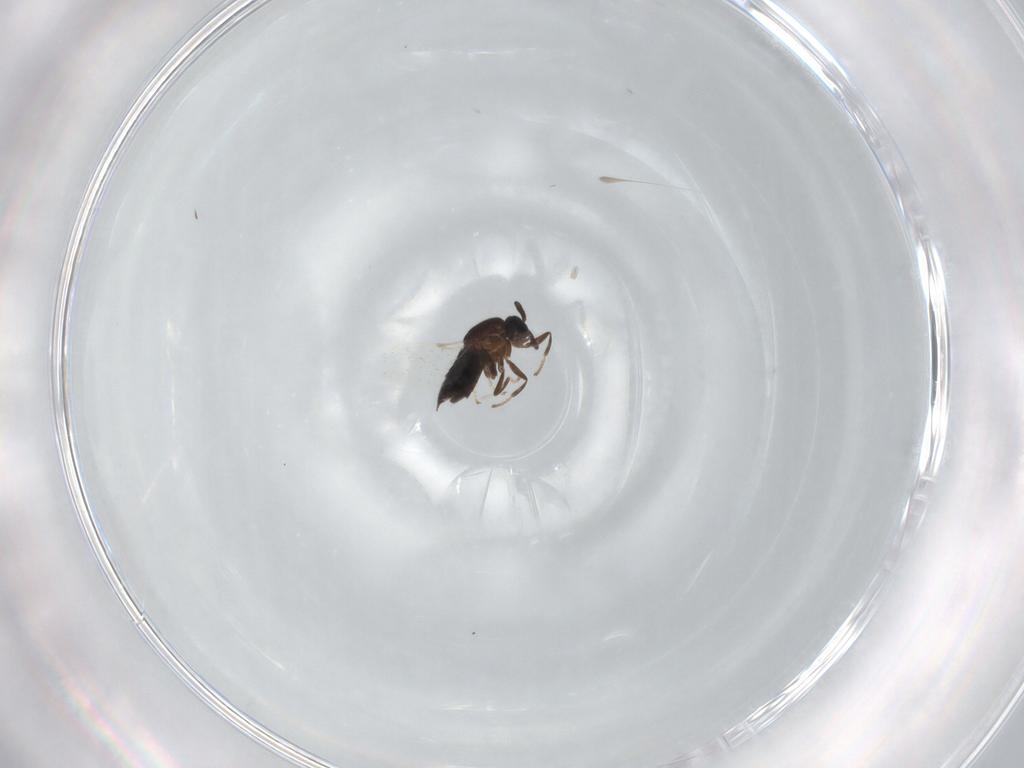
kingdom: Animalia
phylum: Arthropoda
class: Insecta
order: Diptera
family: Scatopsidae
